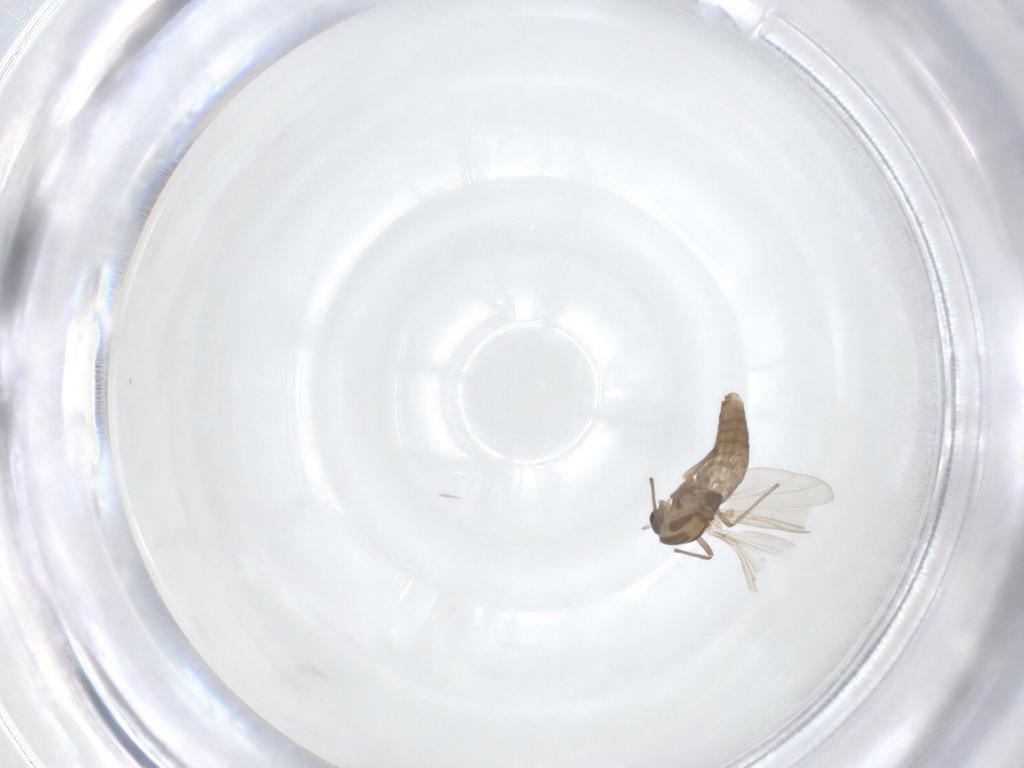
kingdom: Animalia
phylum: Arthropoda
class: Insecta
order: Diptera
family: Chironomidae
